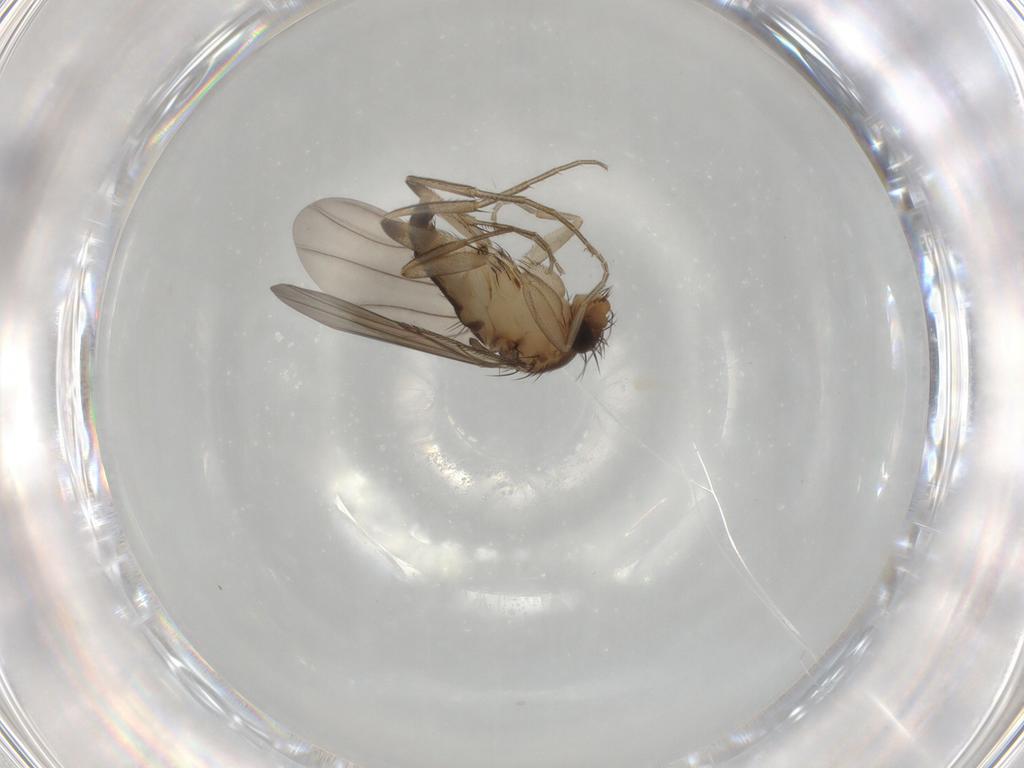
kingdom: Animalia
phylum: Arthropoda
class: Insecta
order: Diptera
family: Phoridae
